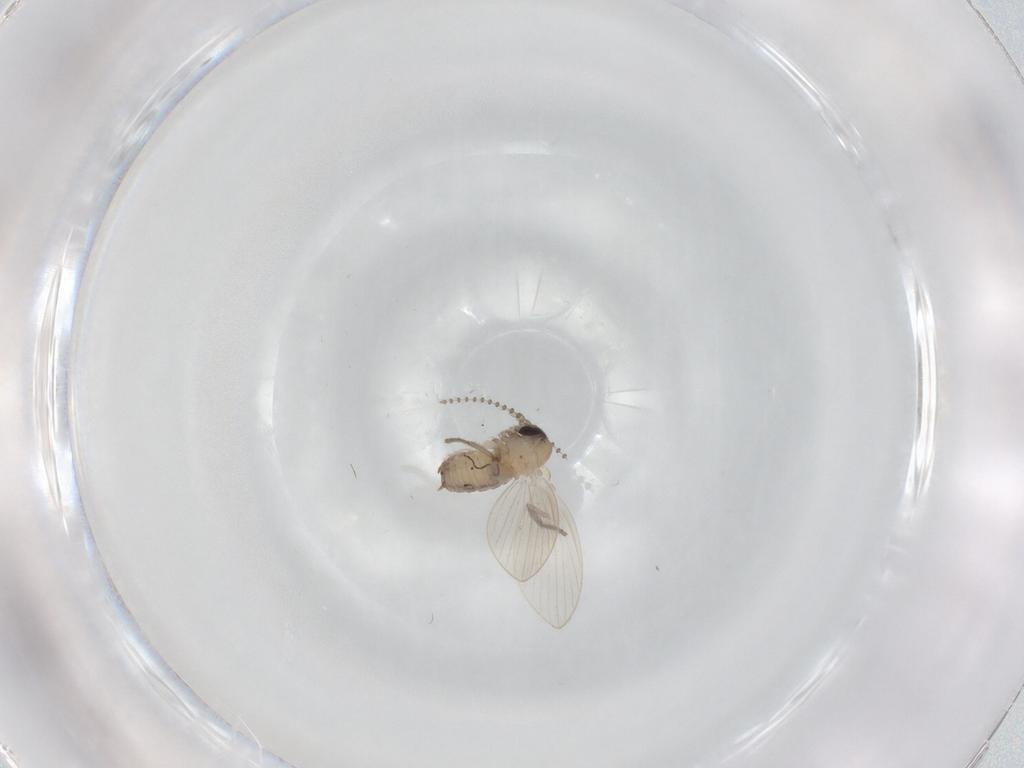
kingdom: Animalia
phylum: Arthropoda
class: Insecta
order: Diptera
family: Psychodidae
